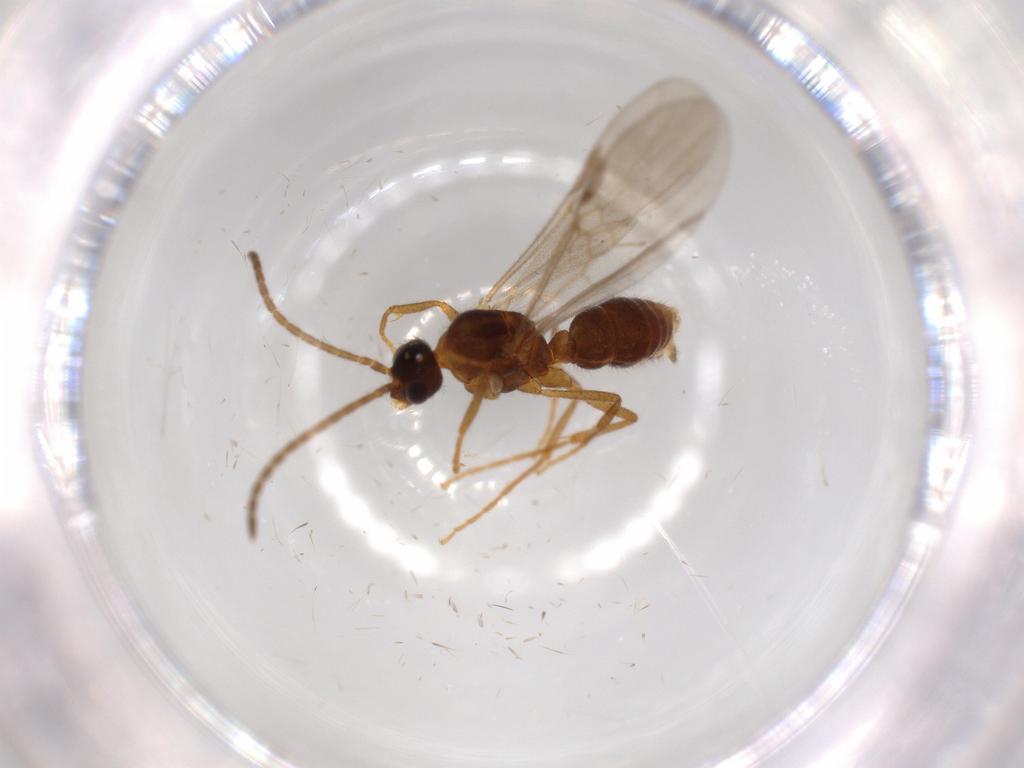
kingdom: Animalia
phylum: Arthropoda
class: Insecta
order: Hymenoptera
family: Formicidae
